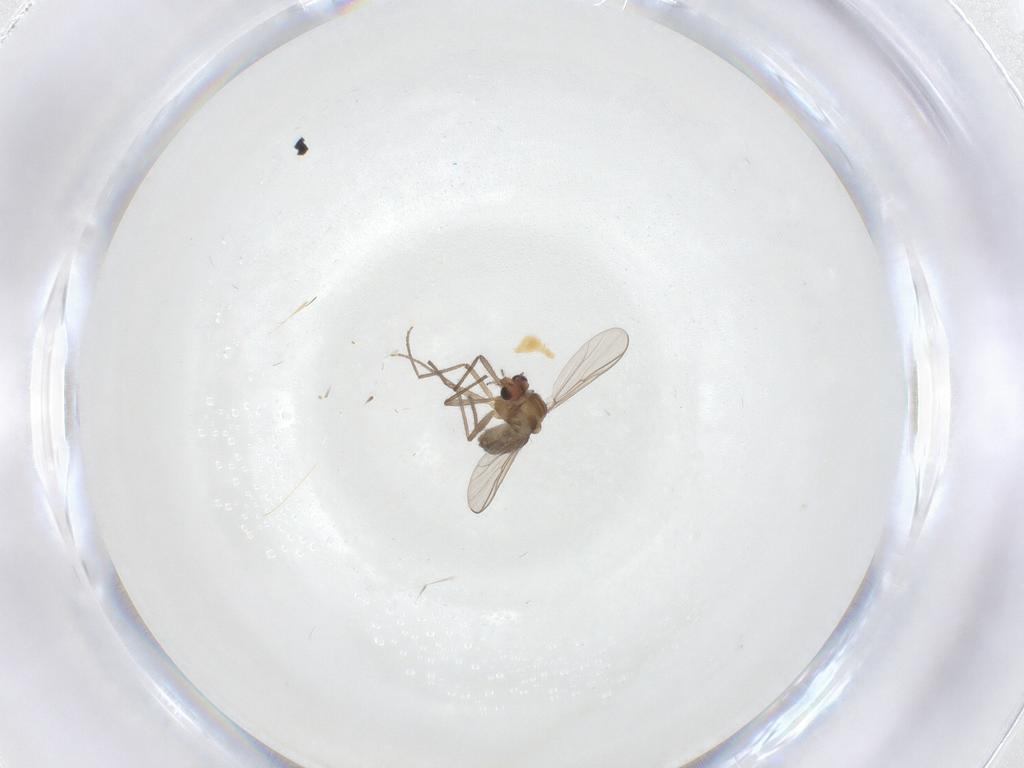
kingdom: Animalia
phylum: Arthropoda
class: Insecta
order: Diptera
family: Chironomidae
